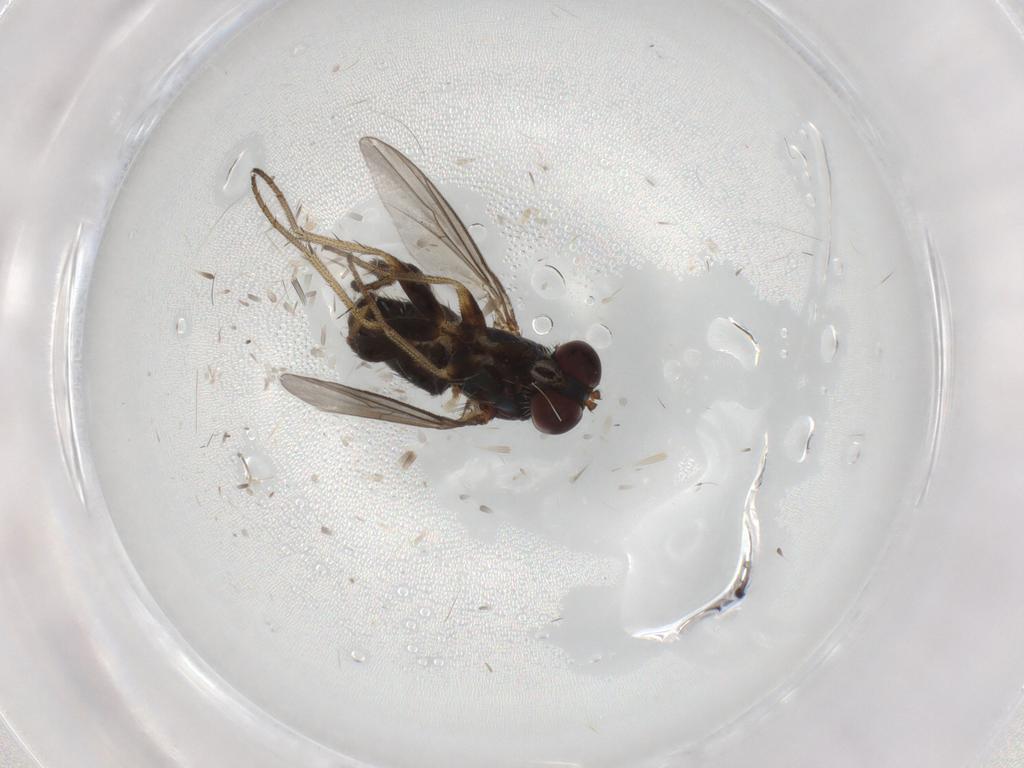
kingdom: Animalia
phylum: Arthropoda
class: Insecta
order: Diptera
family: Dolichopodidae
